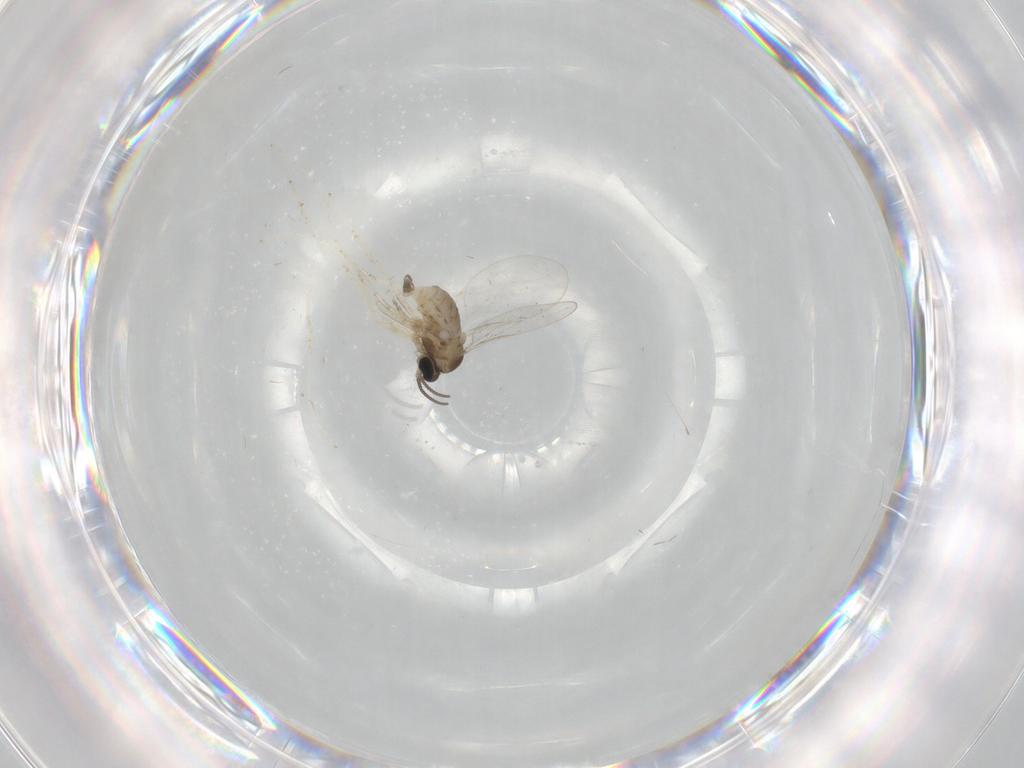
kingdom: Animalia
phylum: Arthropoda
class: Insecta
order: Diptera
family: Cecidomyiidae
